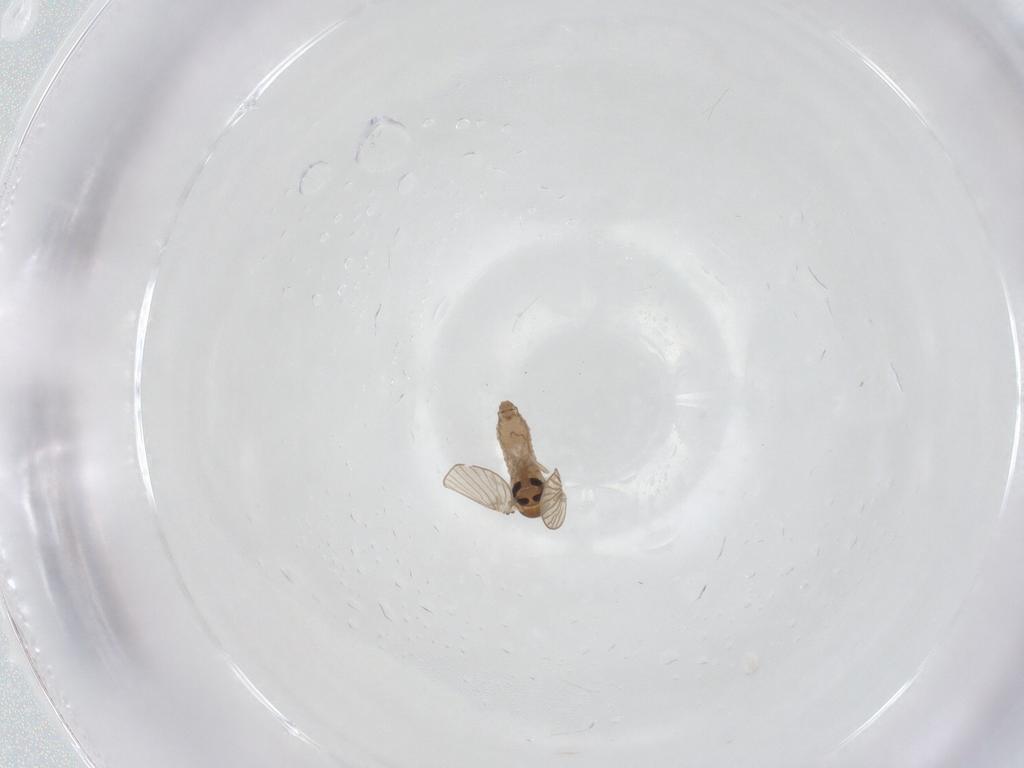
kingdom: Animalia
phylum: Arthropoda
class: Insecta
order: Diptera
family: Psychodidae
